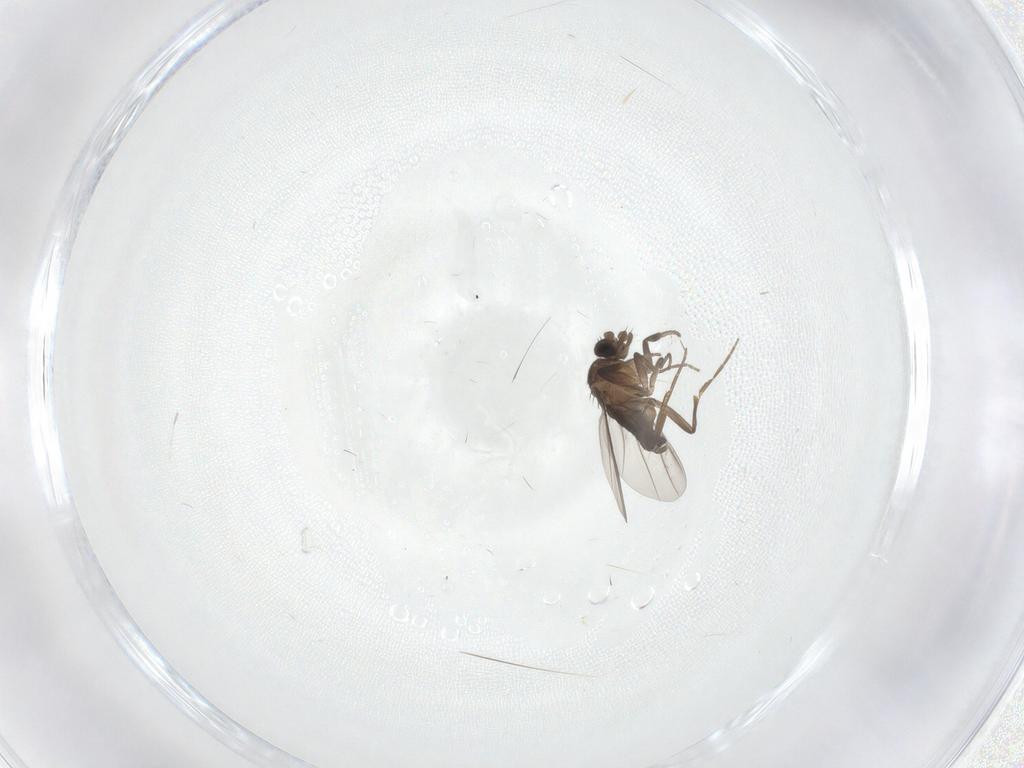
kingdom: Animalia
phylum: Arthropoda
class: Insecta
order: Diptera
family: Phoridae
